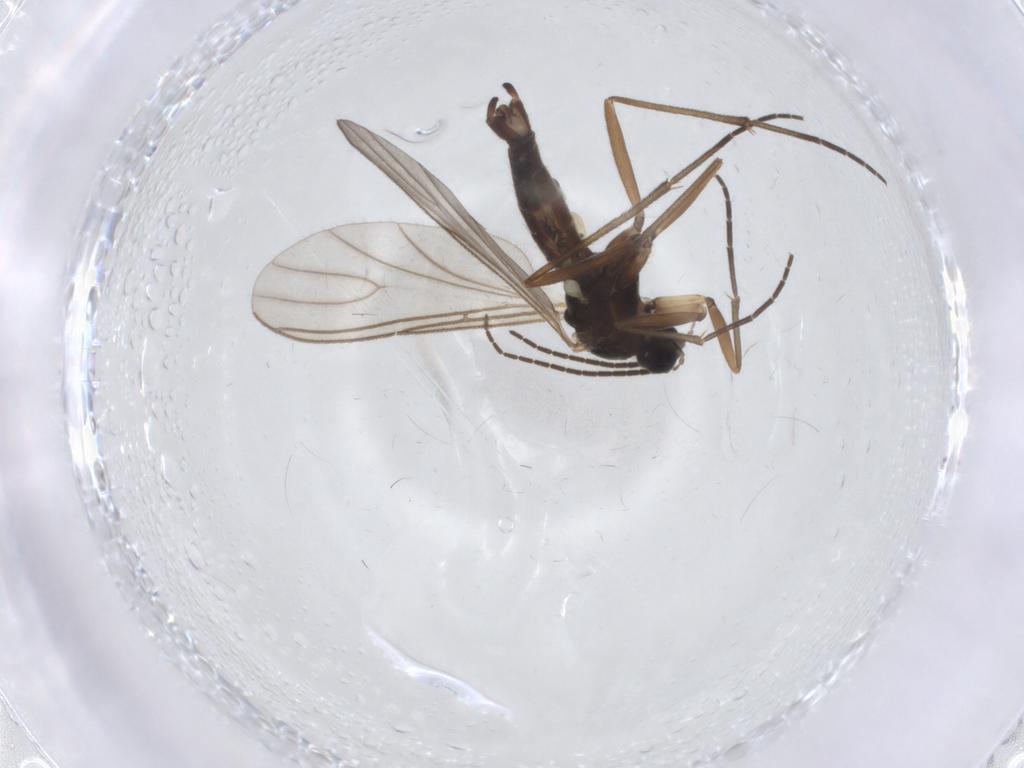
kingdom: Animalia
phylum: Arthropoda
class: Insecta
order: Diptera
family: Sciaridae
